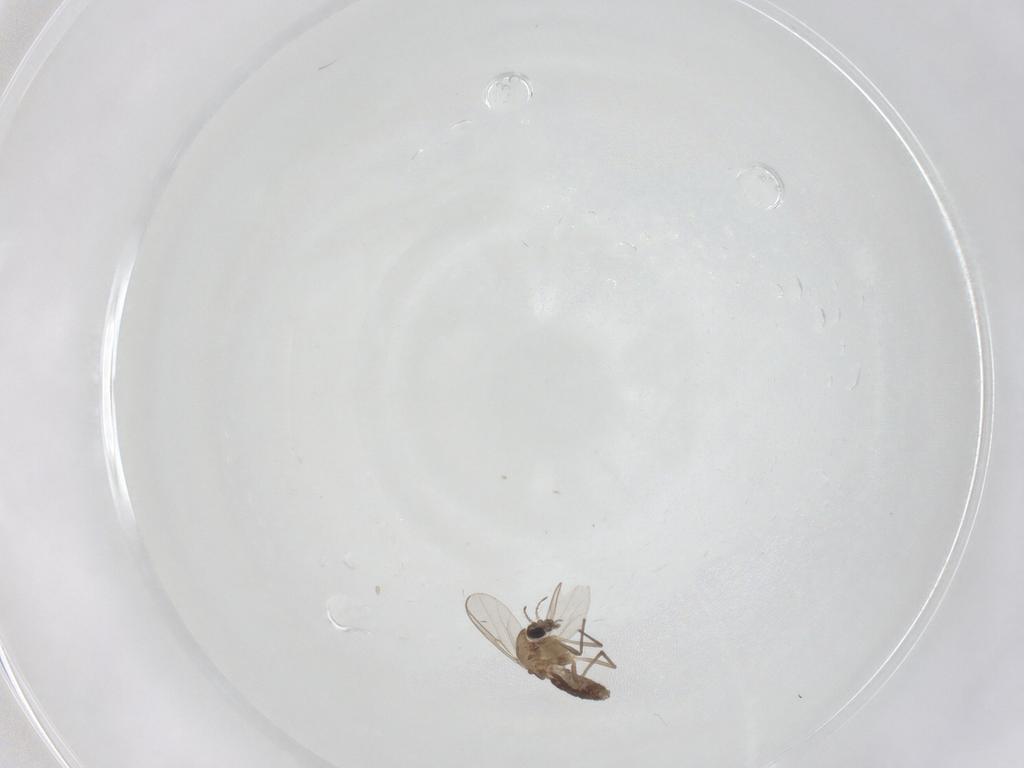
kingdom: Animalia
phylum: Arthropoda
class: Insecta
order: Diptera
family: Chironomidae
